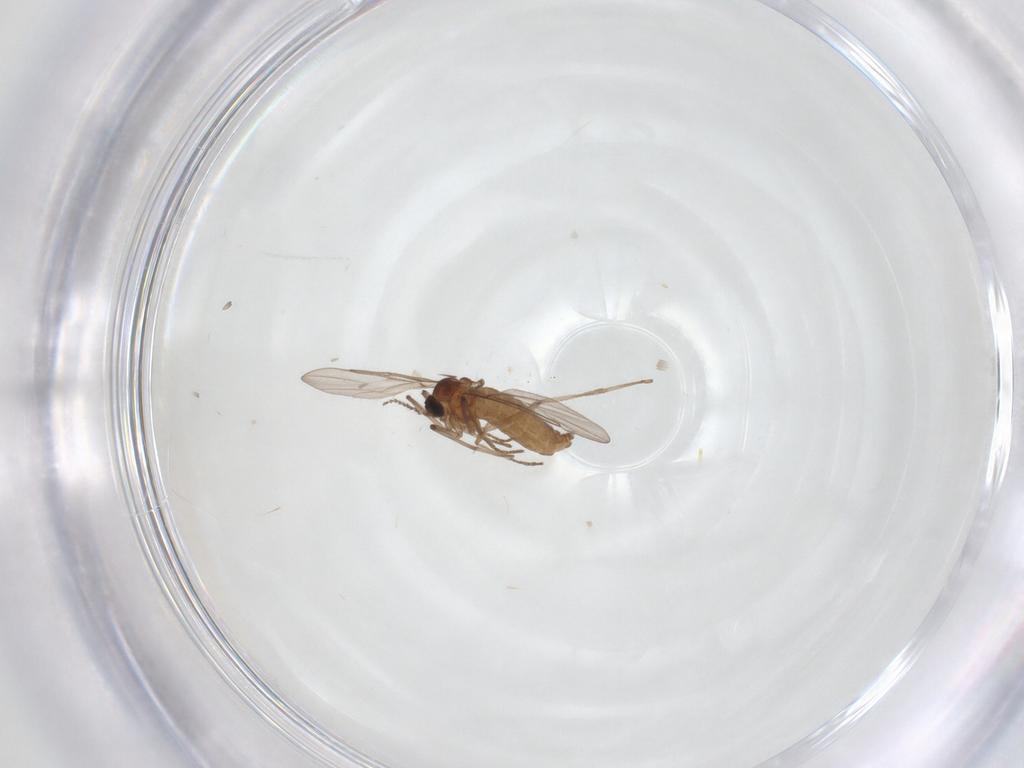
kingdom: Animalia
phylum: Arthropoda
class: Insecta
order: Diptera
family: Cecidomyiidae
